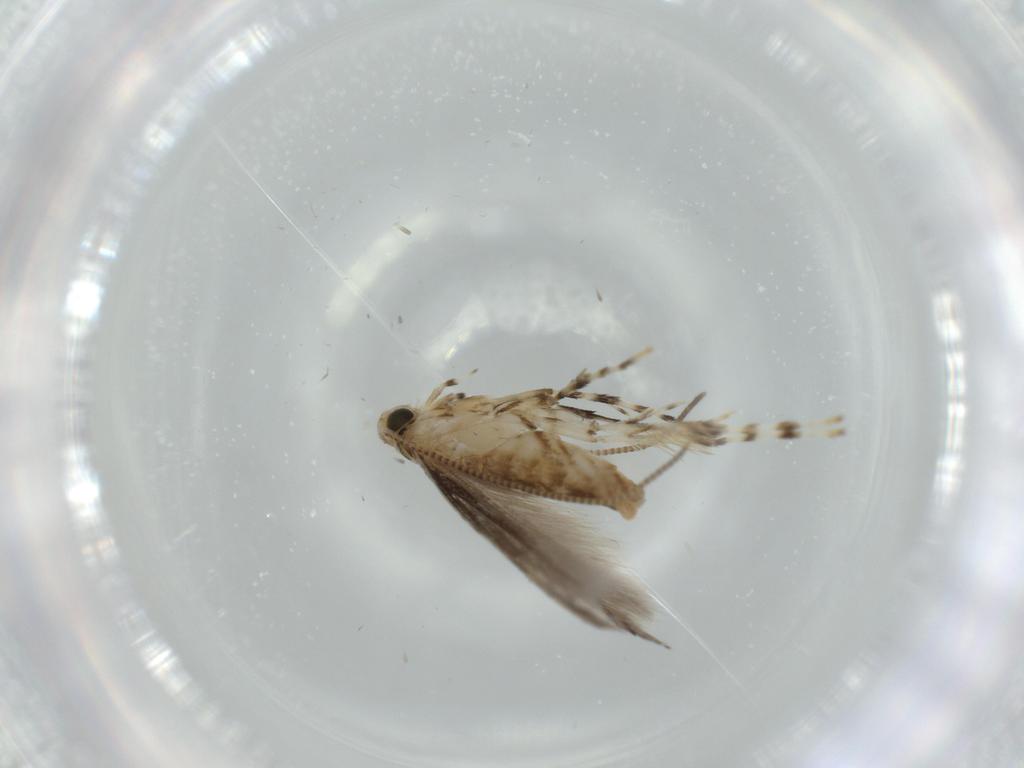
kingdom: Animalia
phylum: Arthropoda
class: Insecta
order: Lepidoptera
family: Gracillariidae
